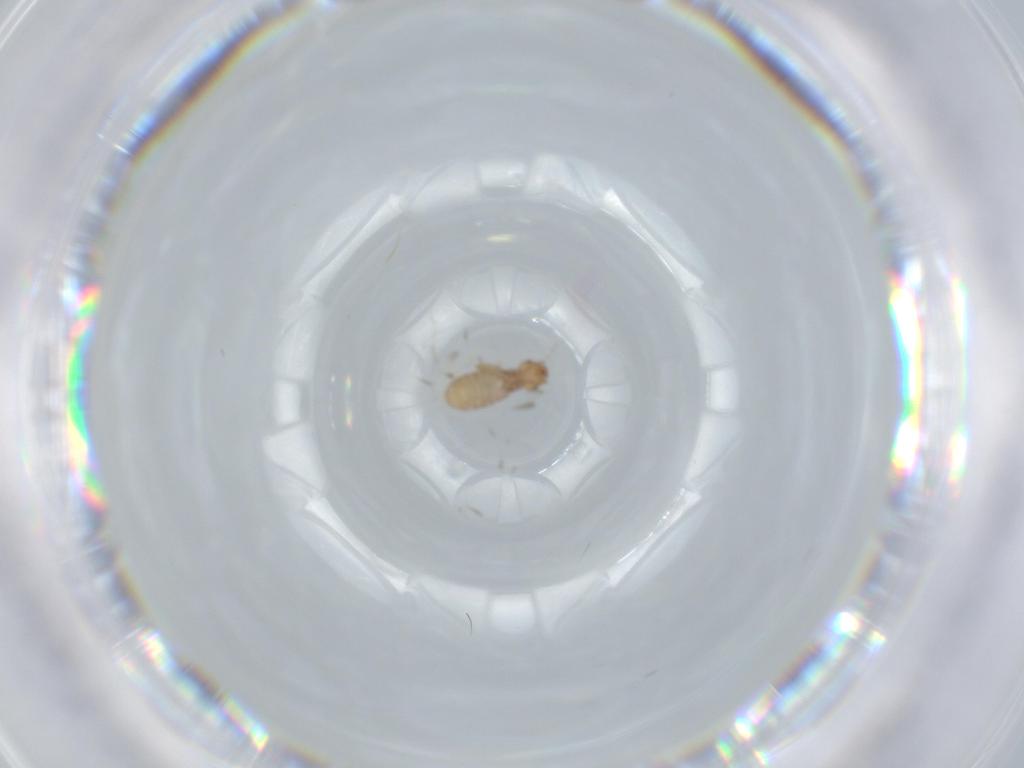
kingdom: Animalia
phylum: Arthropoda
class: Insecta
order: Psocodea
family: Liposcelididae
